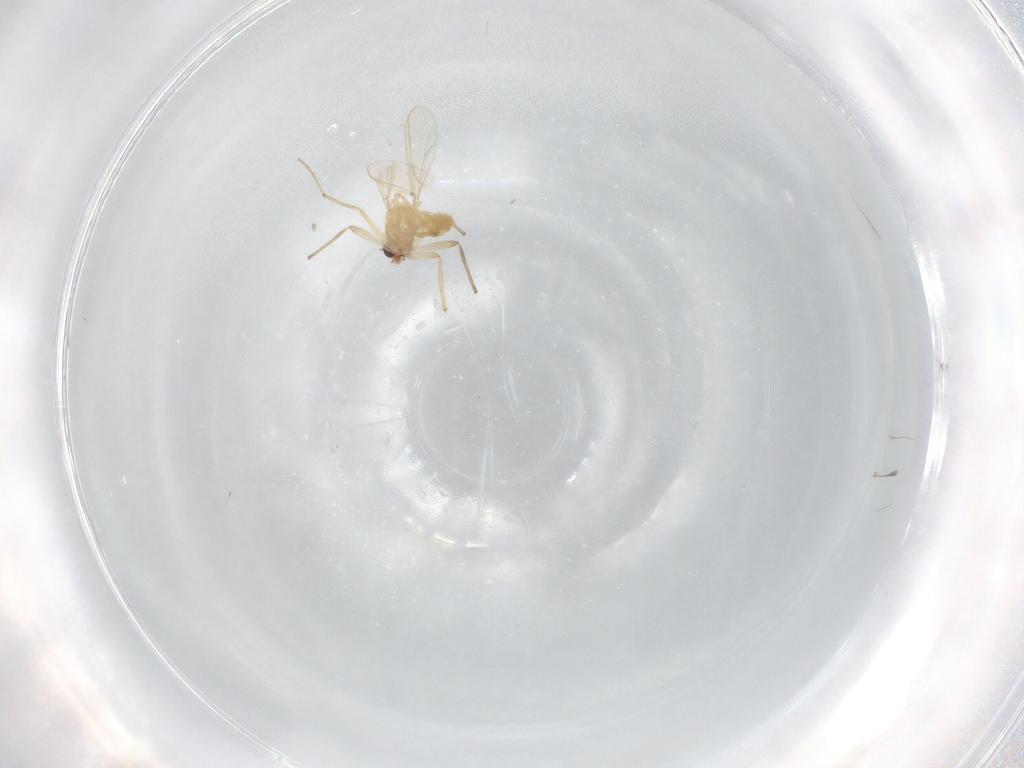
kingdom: Animalia
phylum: Arthropoda
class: Insecta
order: Diptera
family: Chironomidae
